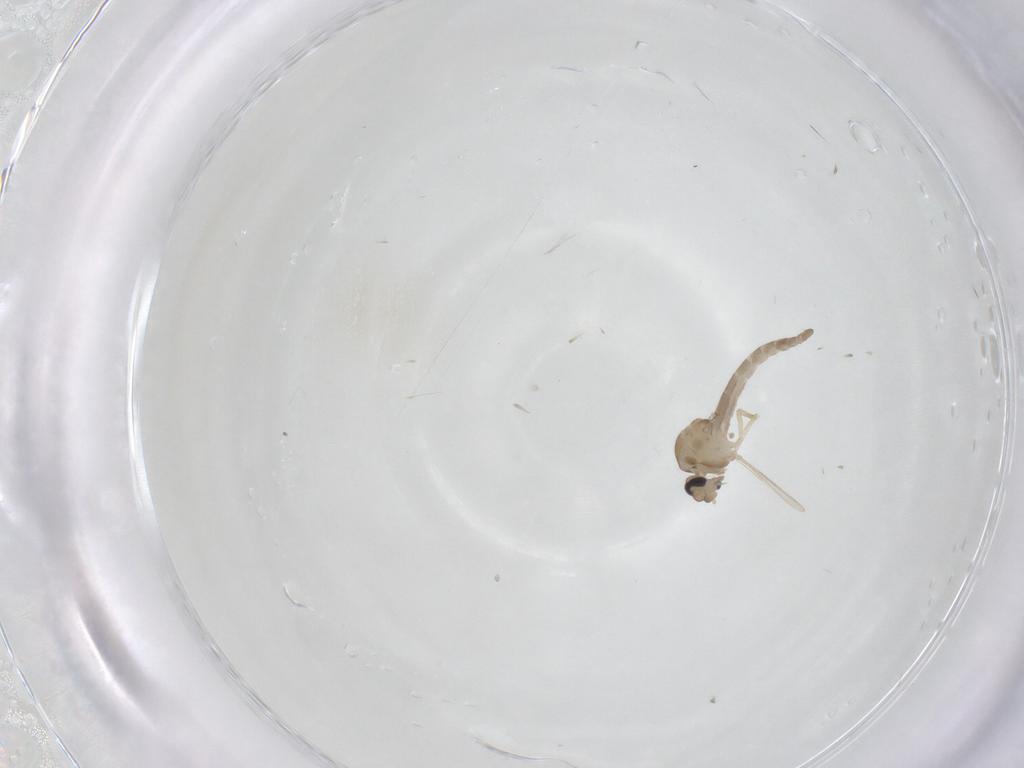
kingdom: Animalia
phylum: Arthropoda
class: Insecta
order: Diptera
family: Ceratopogonidae
